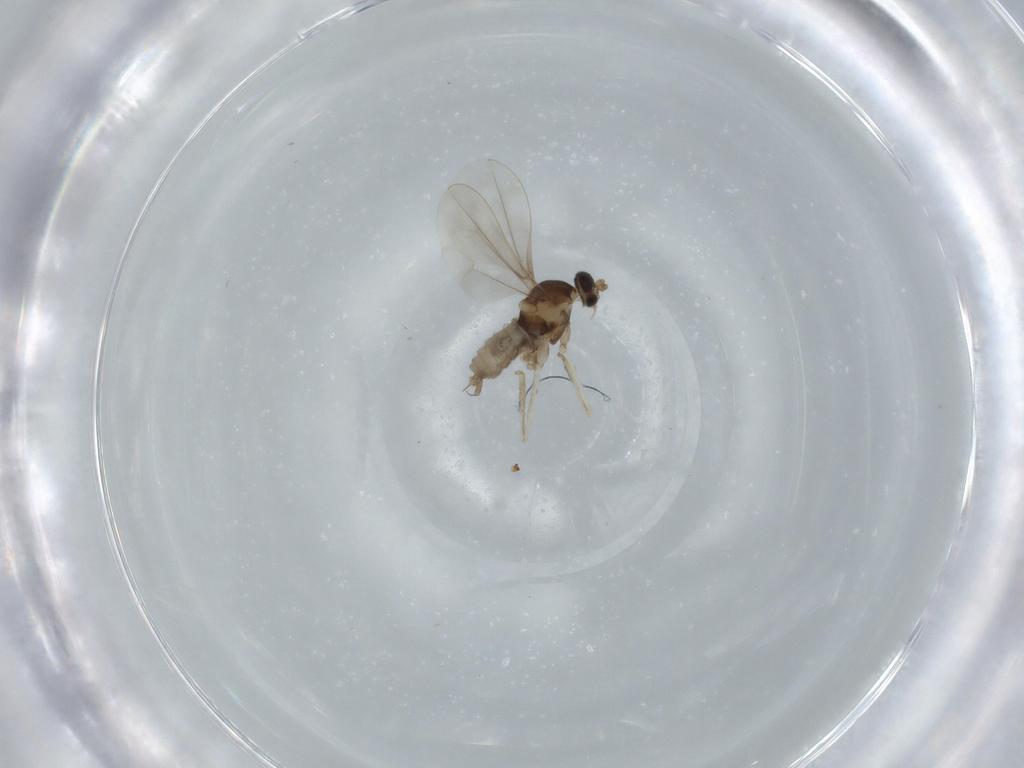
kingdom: Animalia
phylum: Arthropoda
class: Insecta
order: Diptera
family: Cecidomyiidae
